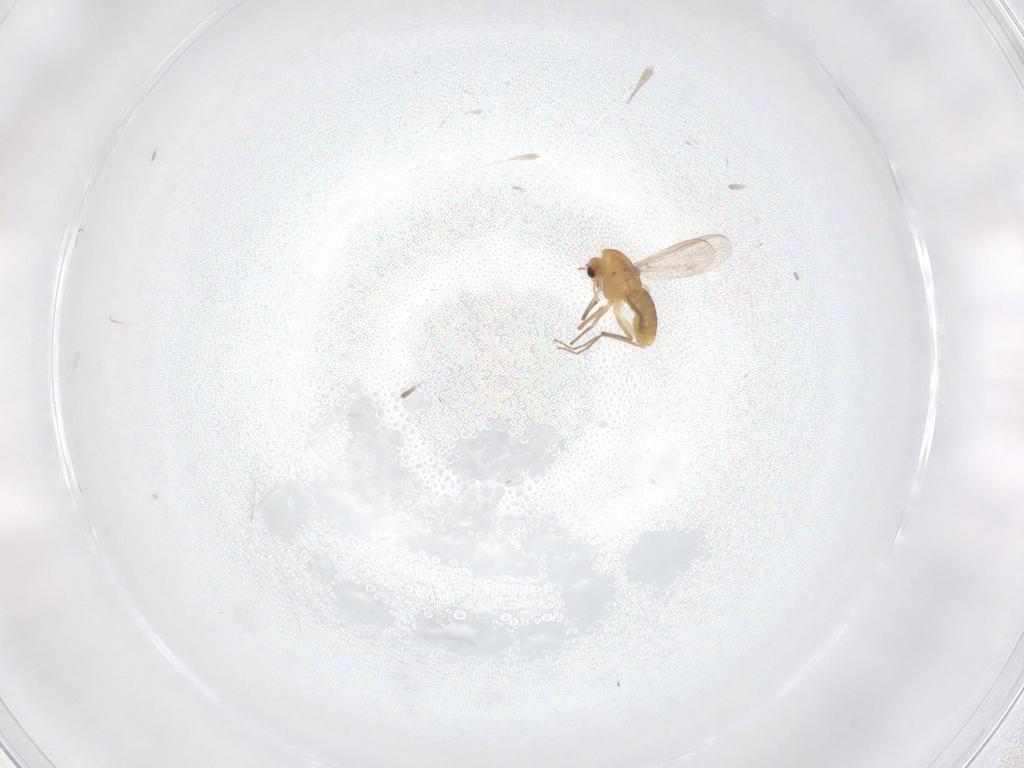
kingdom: Animalia
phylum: Arthropoda
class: Insecta
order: Diptera
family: Chironomidae
